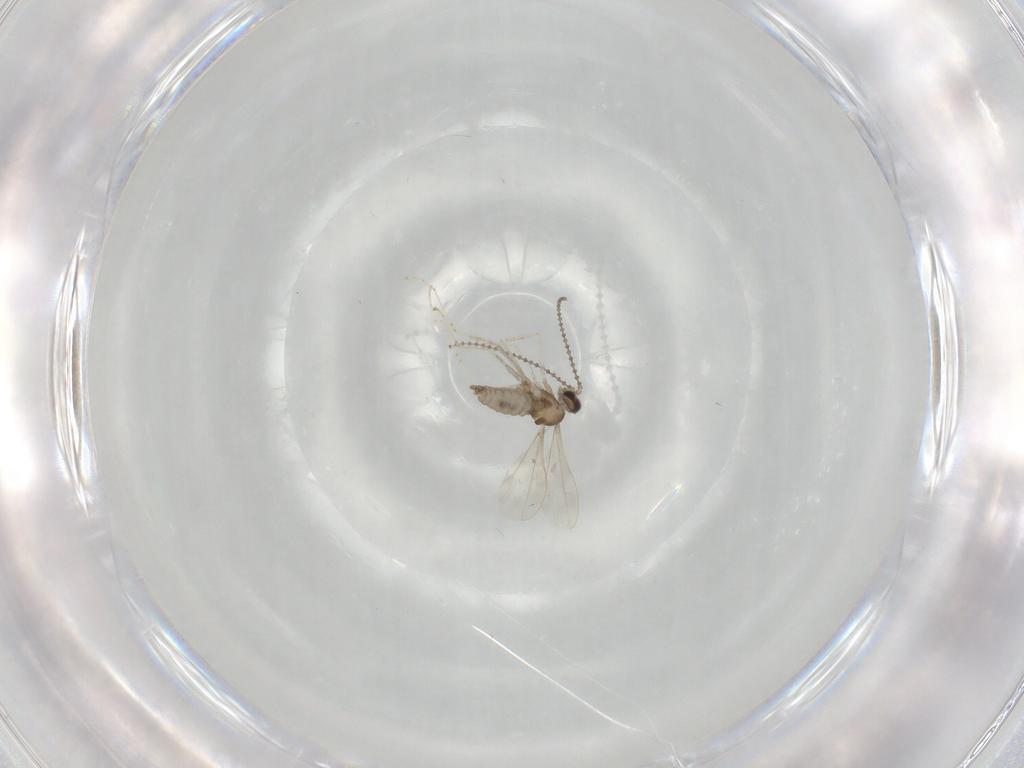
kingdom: Animalia
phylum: Arthropoda
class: Insecta
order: Diptera
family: Cecidomyiidae
